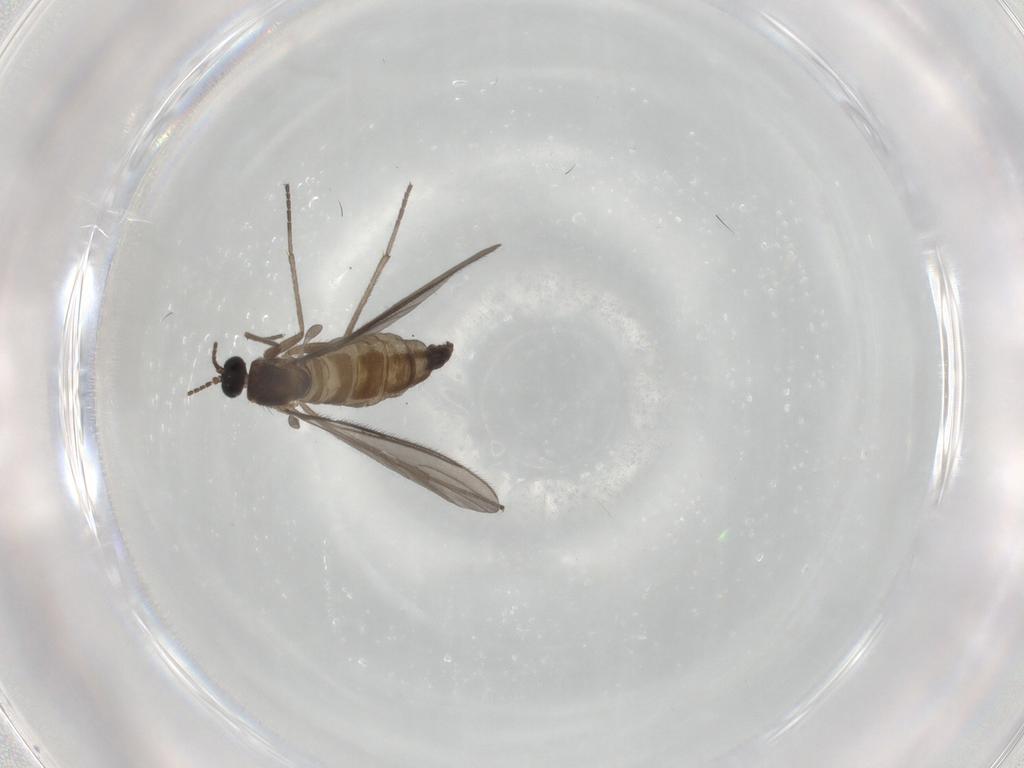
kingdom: Animalia
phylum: Arthropoda
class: Insecta
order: Diptera
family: Sciaridae
